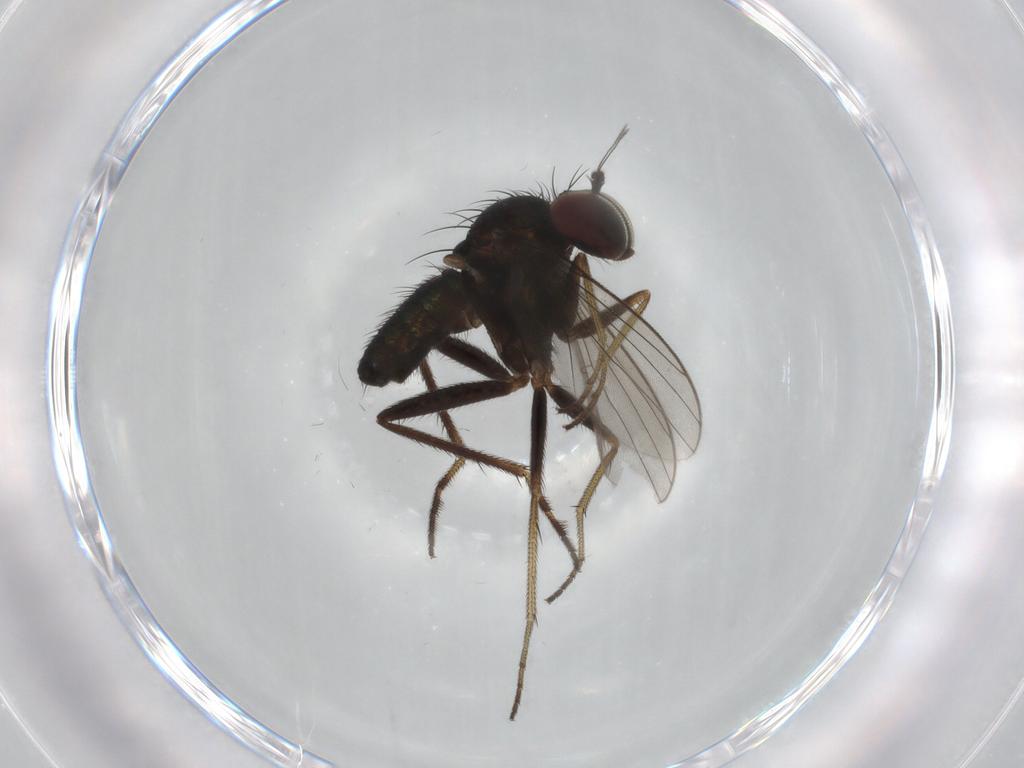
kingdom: Animalia
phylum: Arthropoda
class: Insecta
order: Diptera
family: Dolichopodidae
